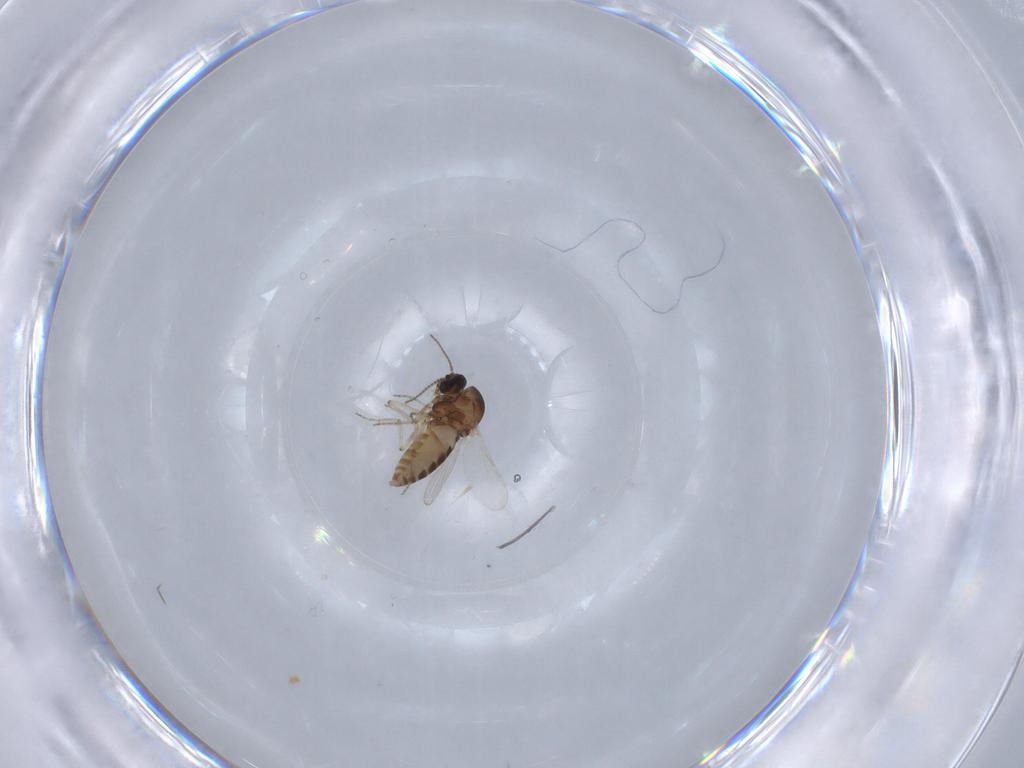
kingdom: Animalia
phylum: Arthropoda
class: Insecta
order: Diptera
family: Ceratopogonidae
